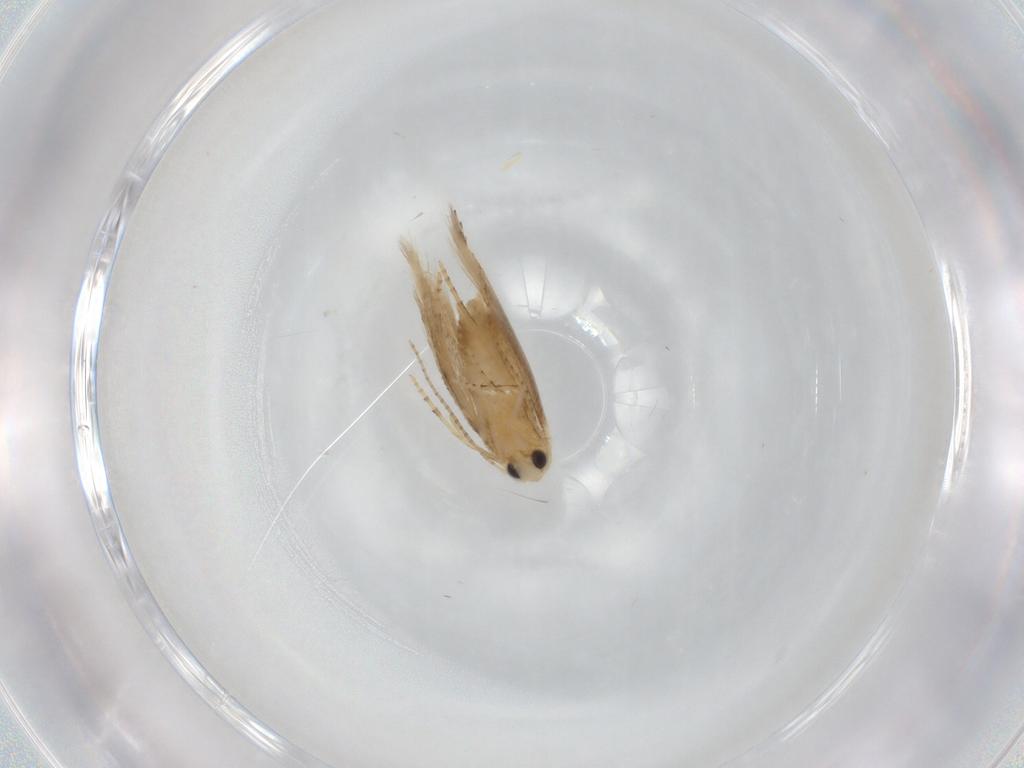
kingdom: Animalia
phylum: Arthropoda
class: Insecta
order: Lepidoptera
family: Bucculatricidae
